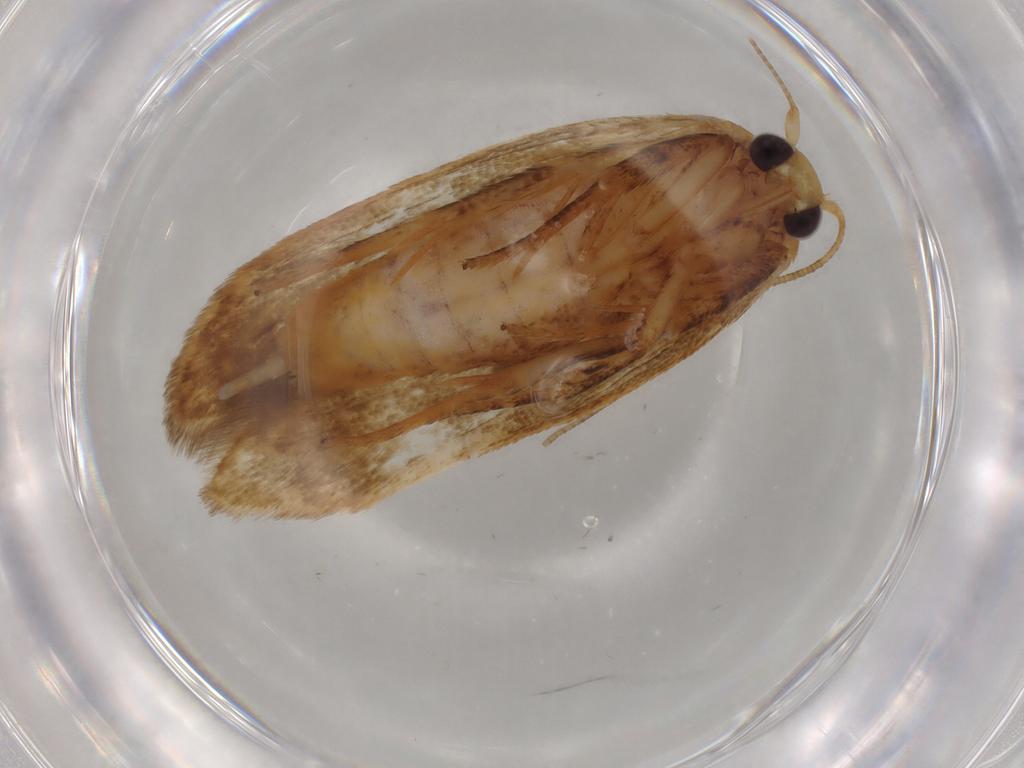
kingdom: Animalia
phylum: Arthropoda
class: Insecta
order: Lepidoptera
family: Blastobasidae
